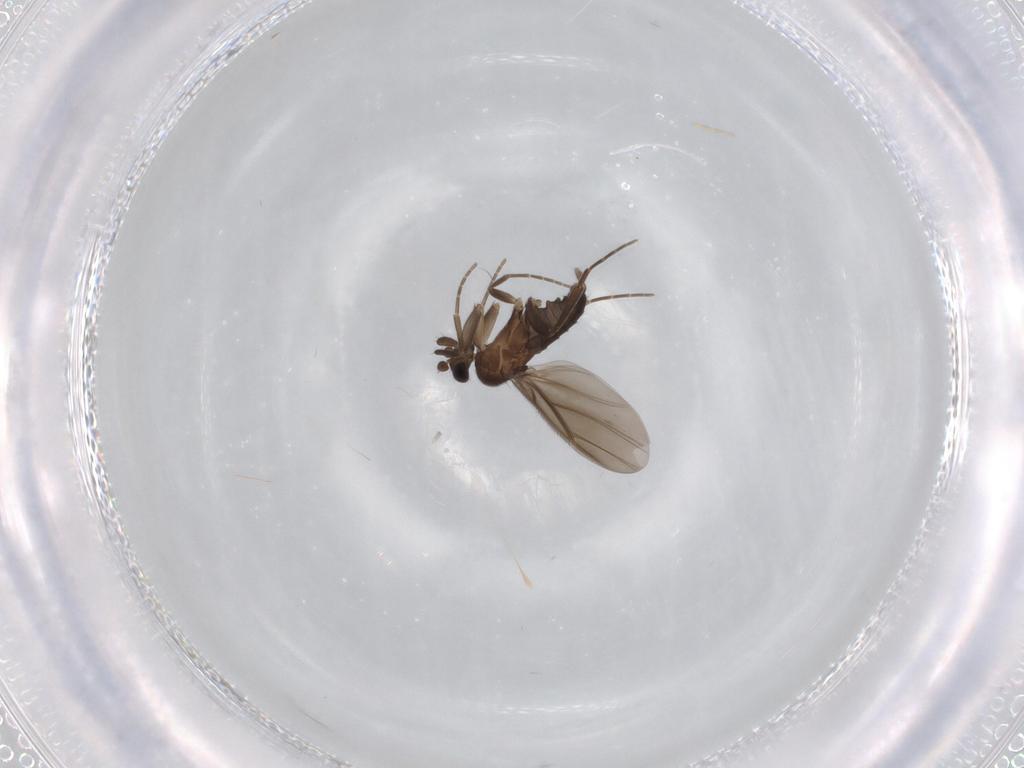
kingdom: Animalia
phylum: Arthropoda
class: Insecta
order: Diptera
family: Phoridae
